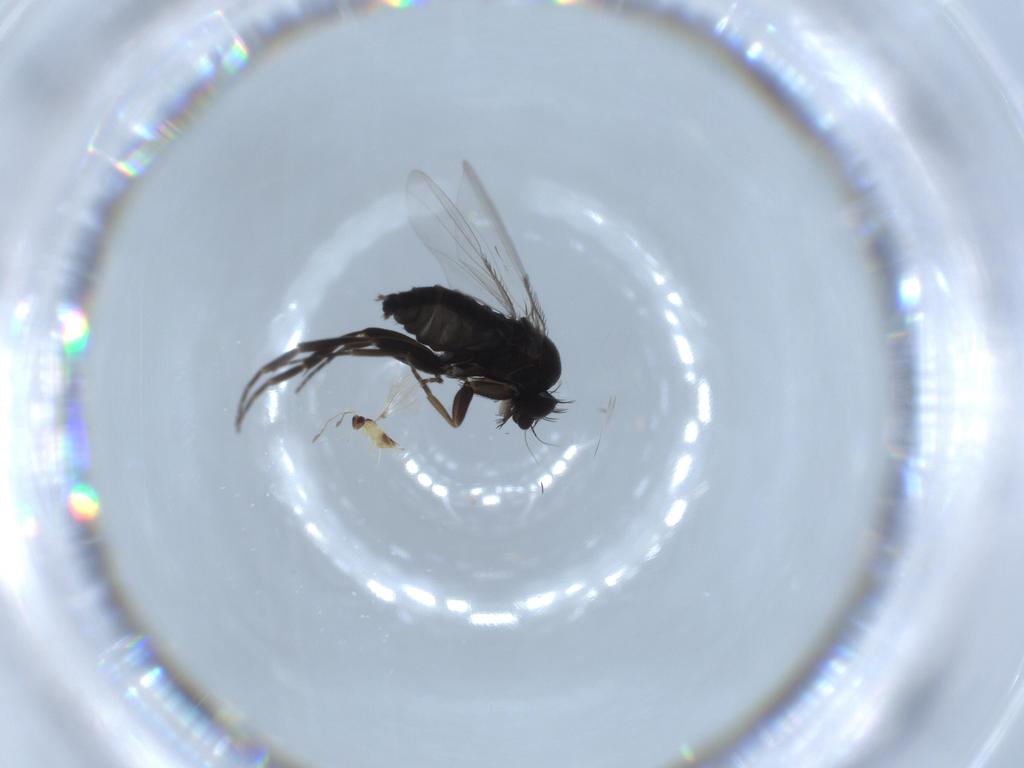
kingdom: Animalia
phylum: Arthropoda
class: Insecta
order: Diptera
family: Phoridae
